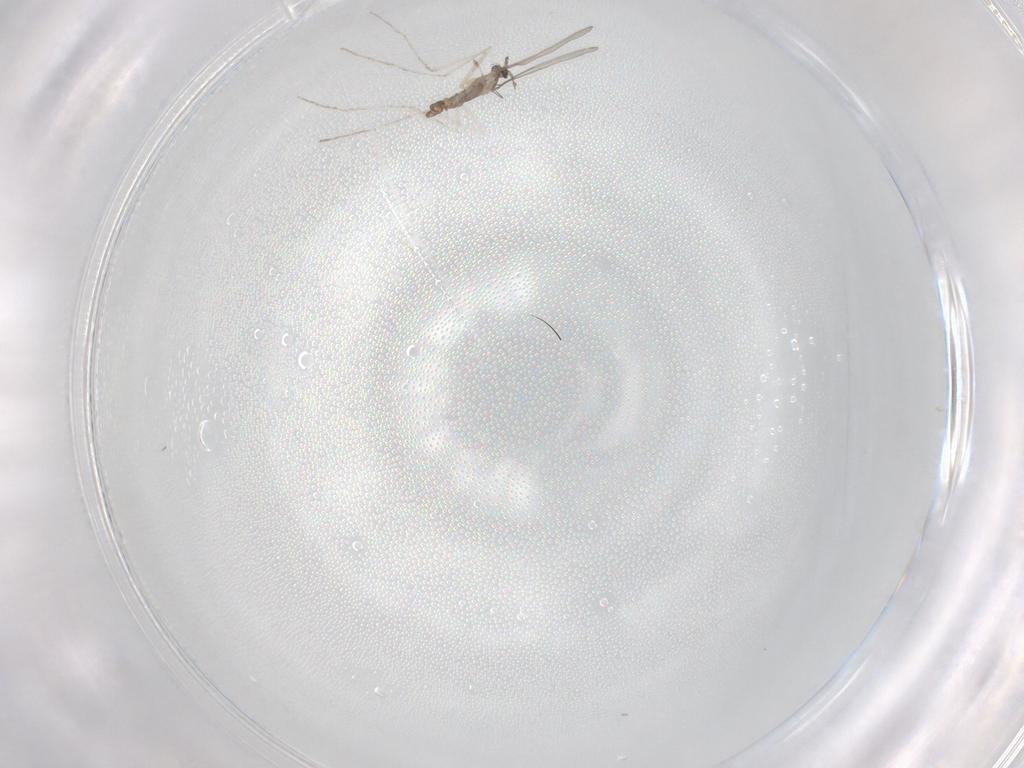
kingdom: Animalia
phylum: Arthropoda
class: Insecta
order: Diptera
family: Cecidomyiidae
